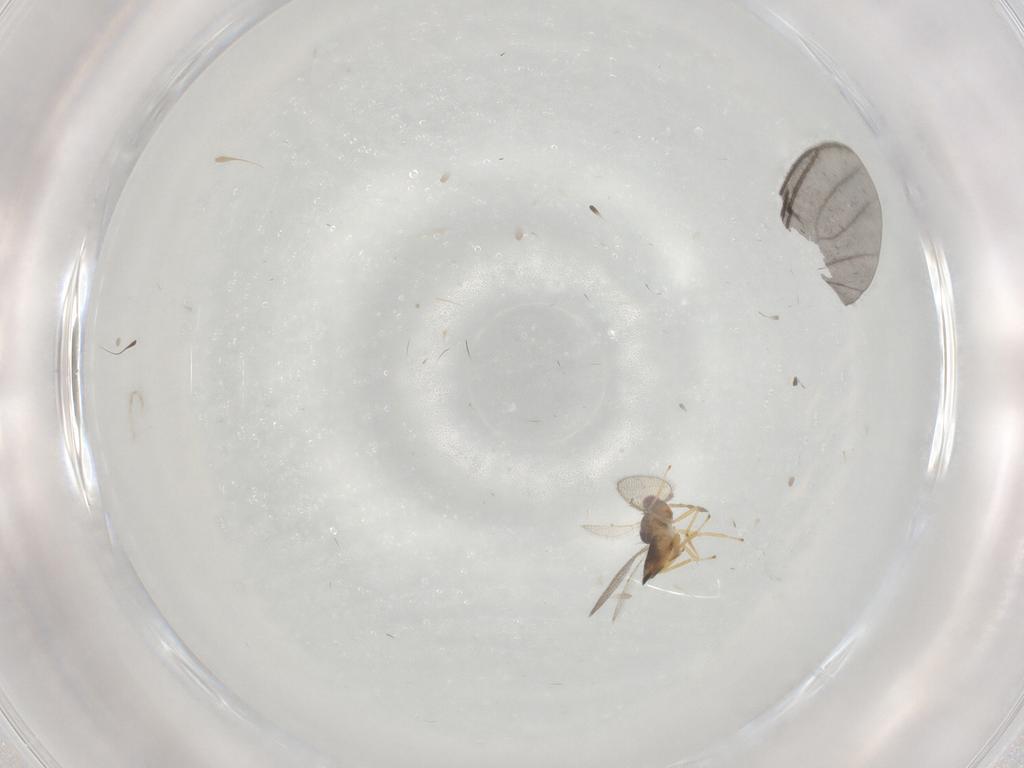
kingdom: Animalia
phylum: Arthropoda
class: Insecta
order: Hymenoptera
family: Eulophidae
